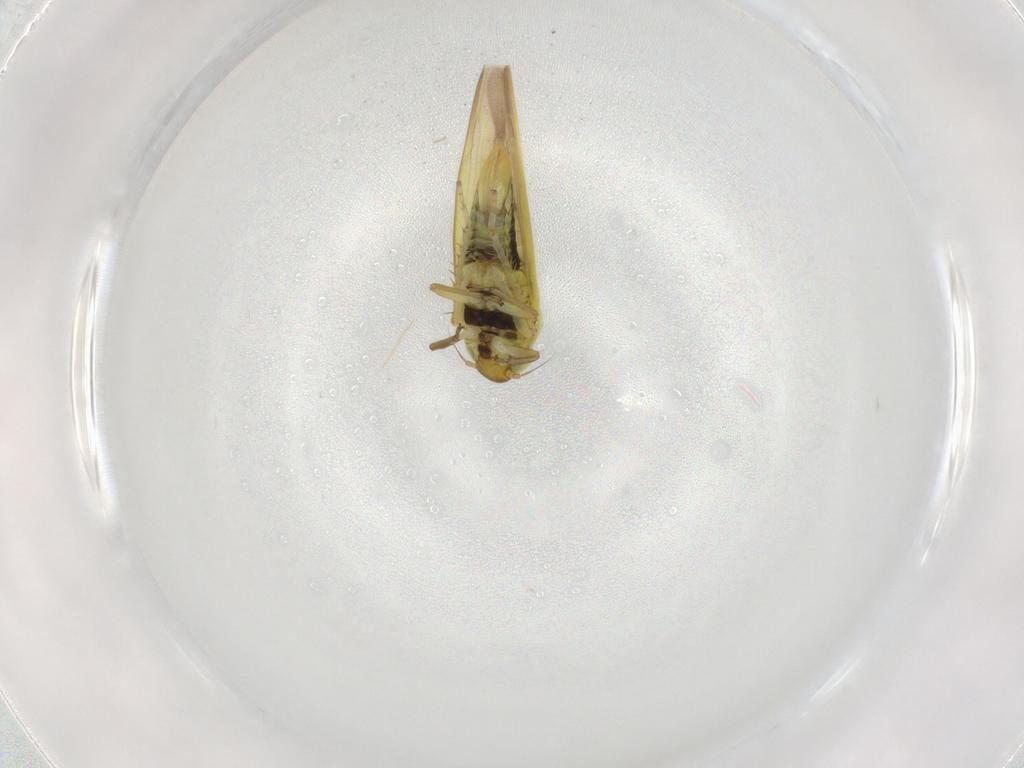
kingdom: Animalia
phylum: Arthropoda
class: Insecta
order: Hemiptera
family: Cicadellidae
